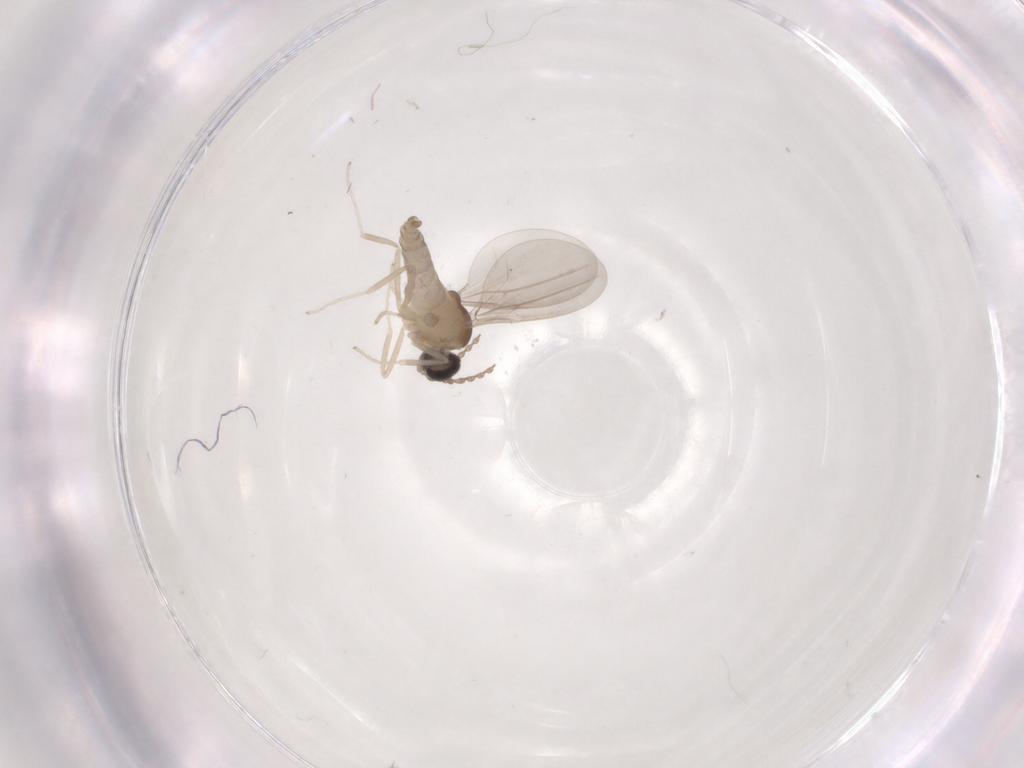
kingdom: Animalia
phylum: Arthropoda
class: Insecta
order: Diptera
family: Cecidomyiidae
